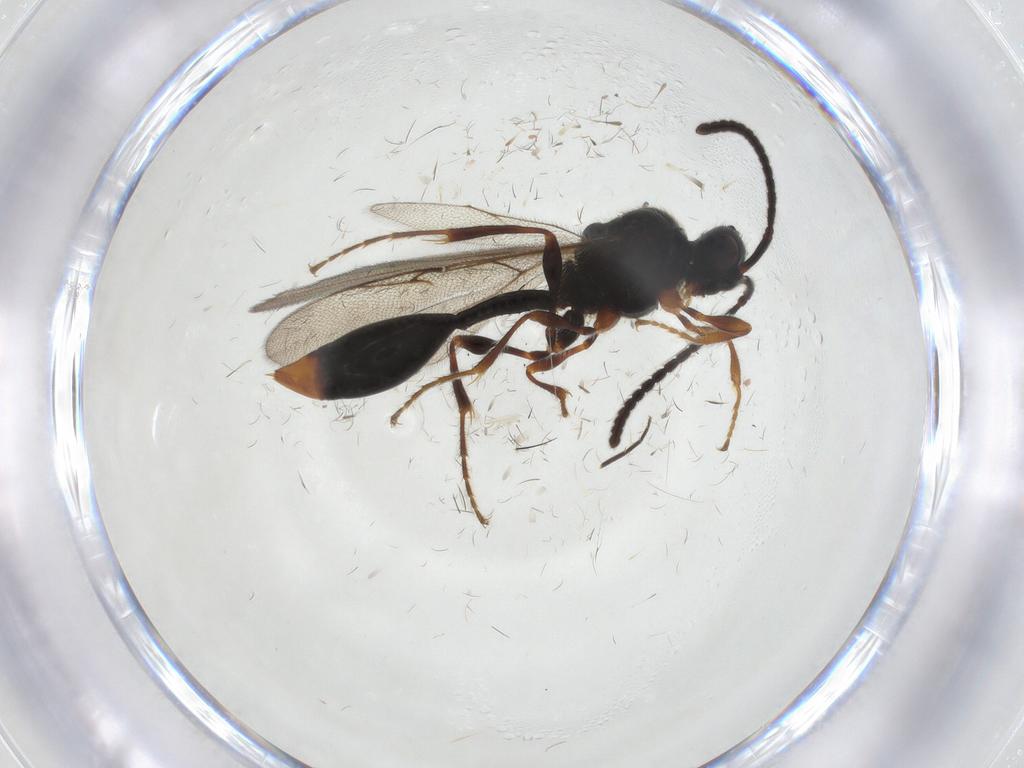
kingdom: Animalia
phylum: Arthropoda
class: Insecta
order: Hymenoptera
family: Diapriidae
